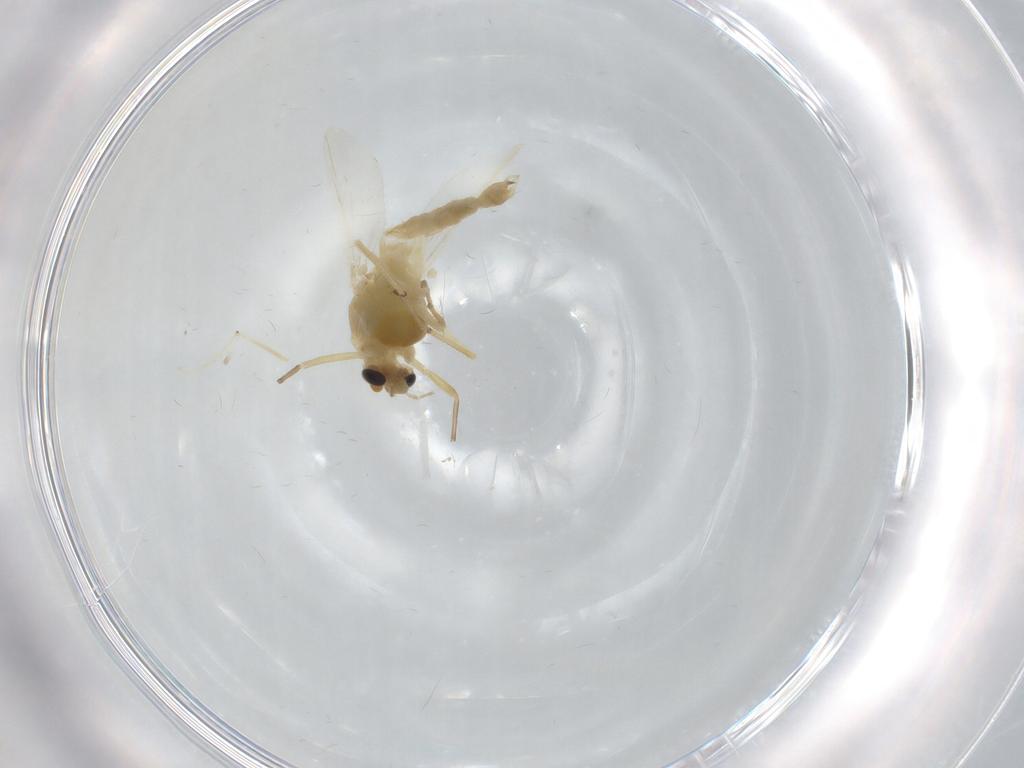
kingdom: Animalia
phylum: Arthropoda
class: Insecta
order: Diptera
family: Chironomidae
